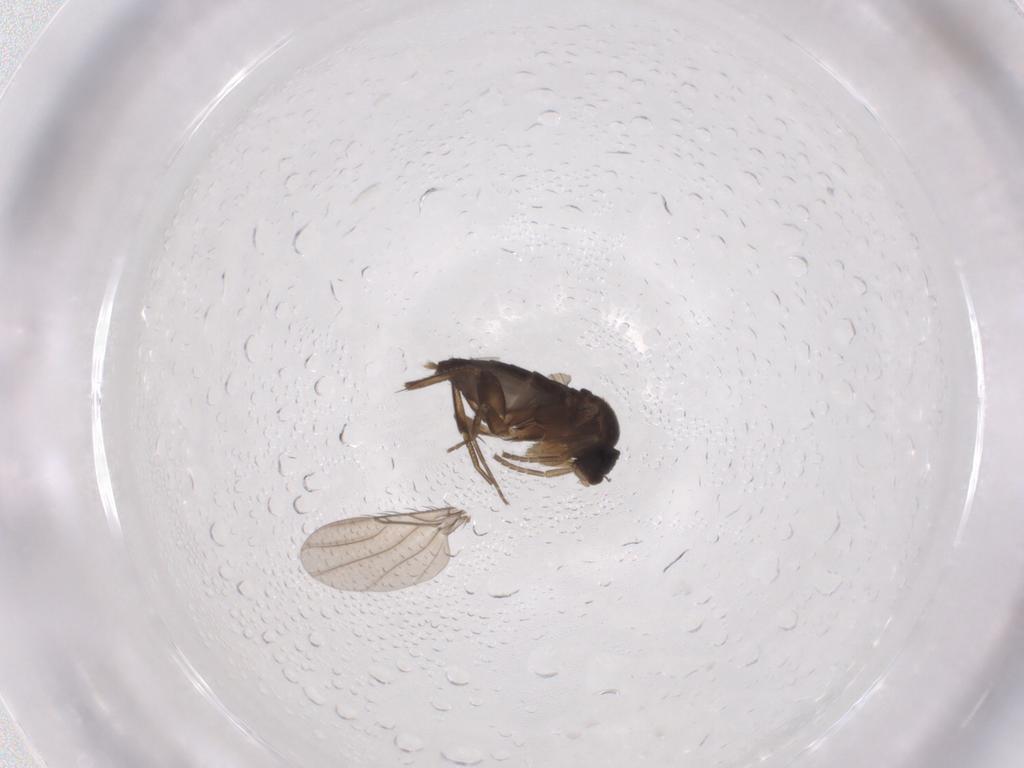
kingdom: Animalia
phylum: Arthropoda
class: Insecta
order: Diptera
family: Phoridae
